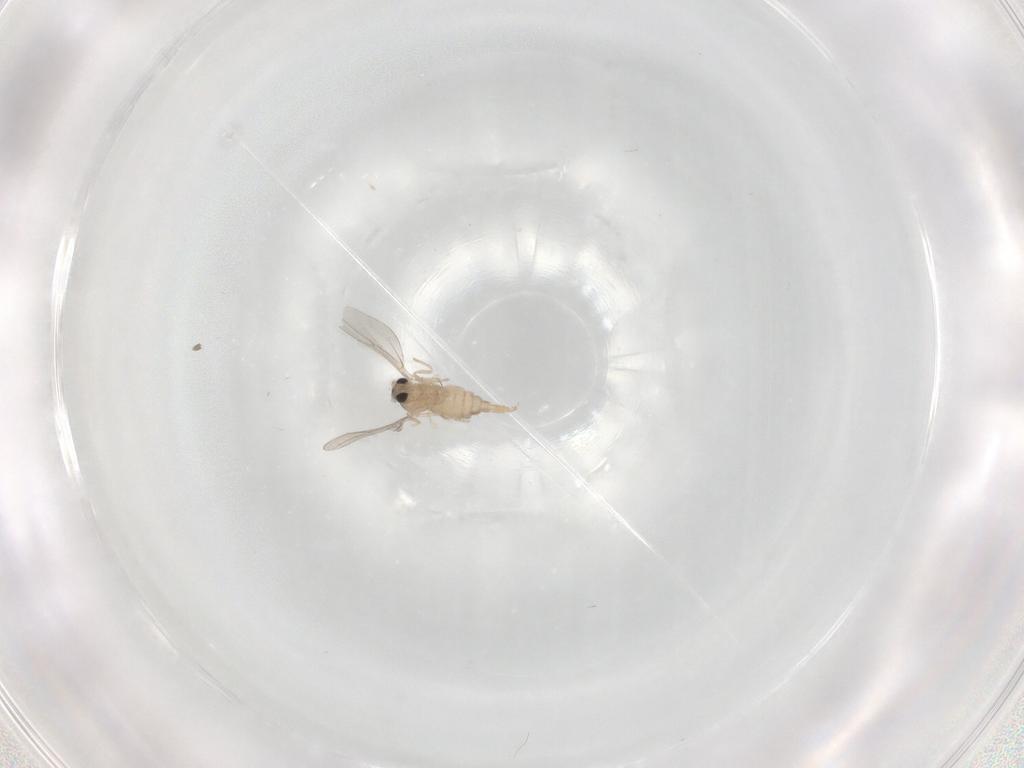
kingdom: Animalia
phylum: Arthropoda
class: Insecta
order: Diptera
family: Cecidomyiidae
